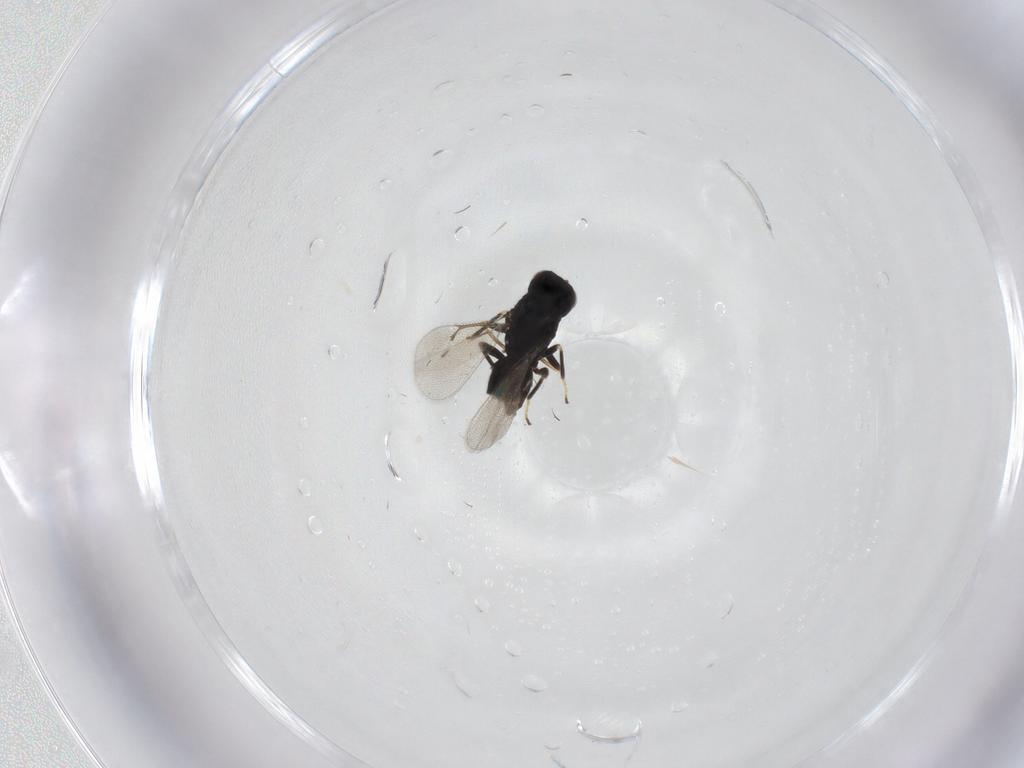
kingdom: Animalia
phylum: Arthropoda
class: Insecta
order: Hymenoptera
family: Eulophidae
